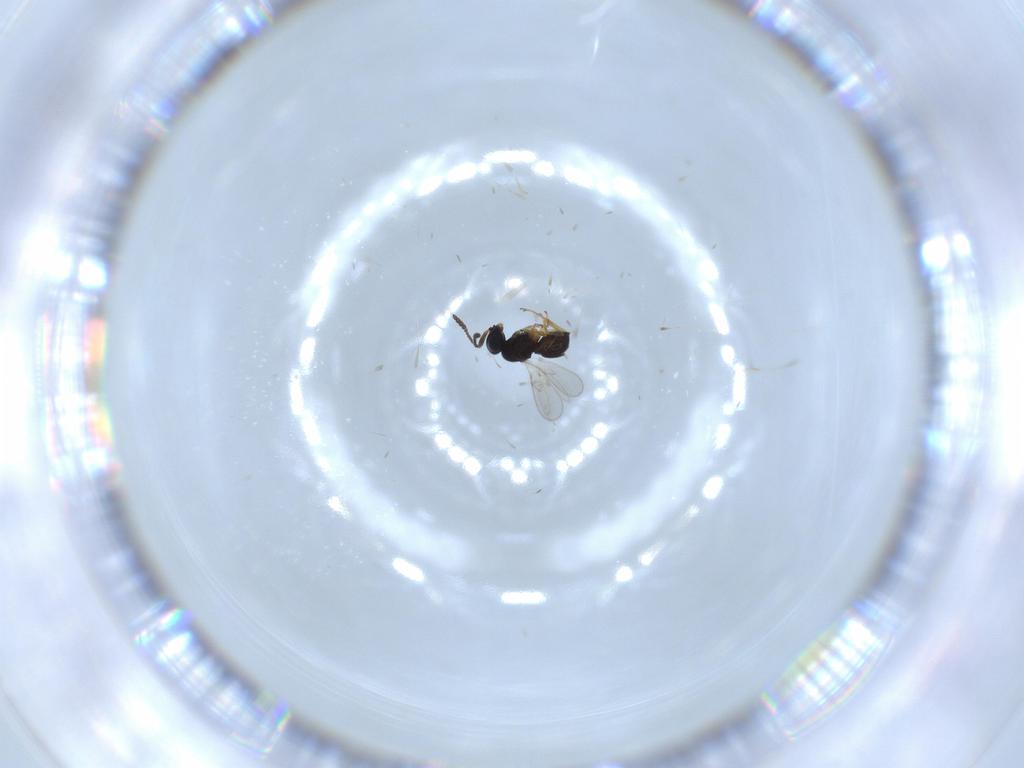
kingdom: Animalia
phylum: Arthropoda
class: Insecta
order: Hymenoptera
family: Scelionidae
